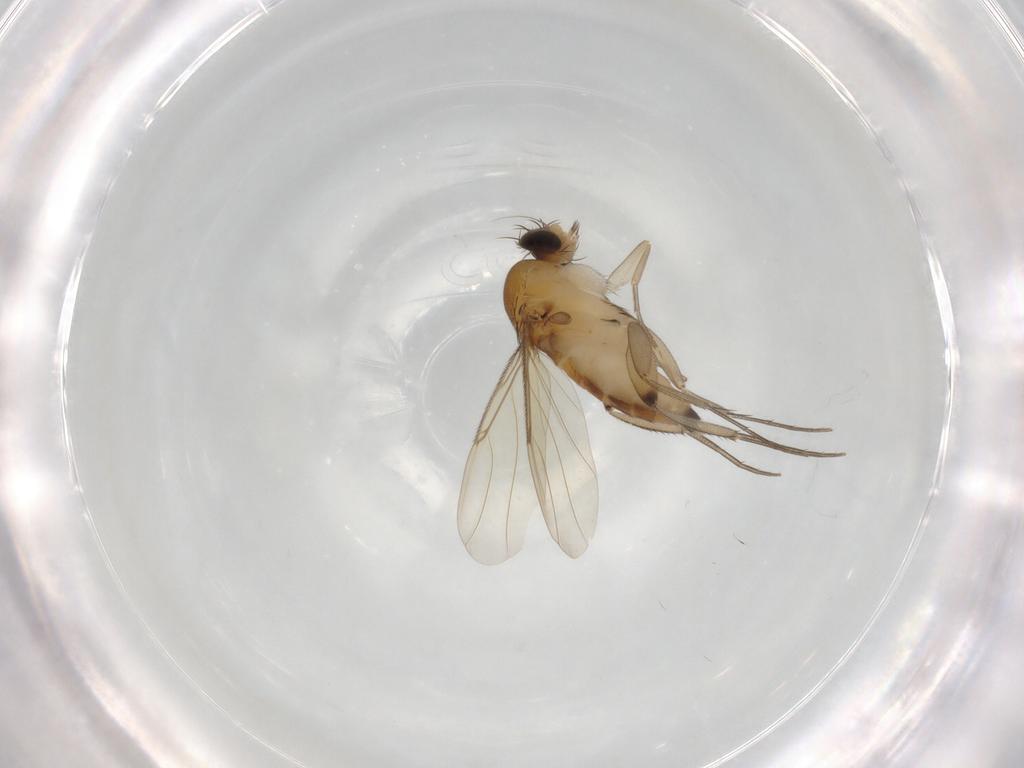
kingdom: Animalia
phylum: Arthropoda
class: Insecta
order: Diptera
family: Phoridae
